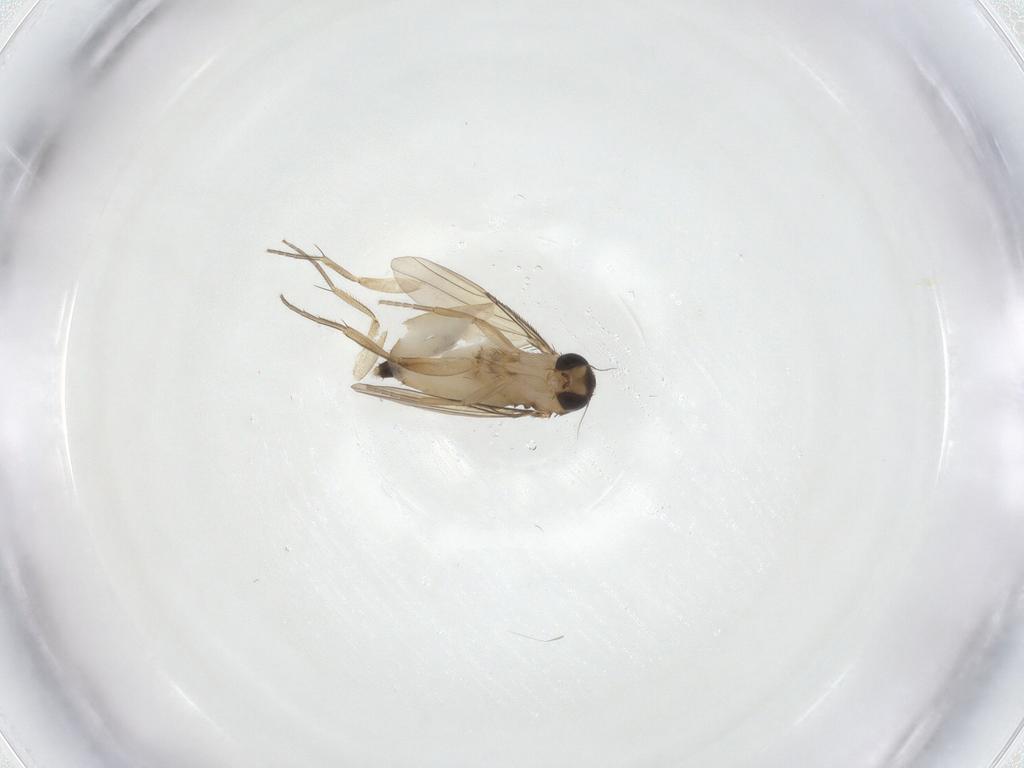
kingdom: Animalia
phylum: Arthropoda
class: Insecta
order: Diptera
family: Phoridae
